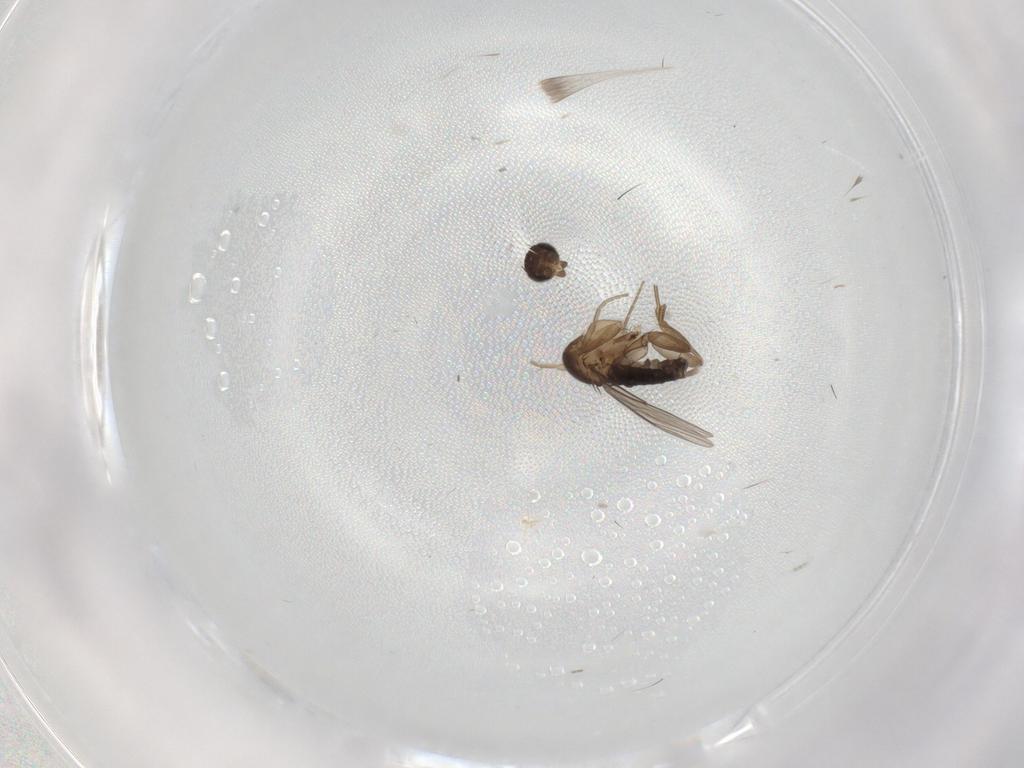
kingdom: Animalia
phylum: Arthropoda
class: Insecta
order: Diptera
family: Phoridae
